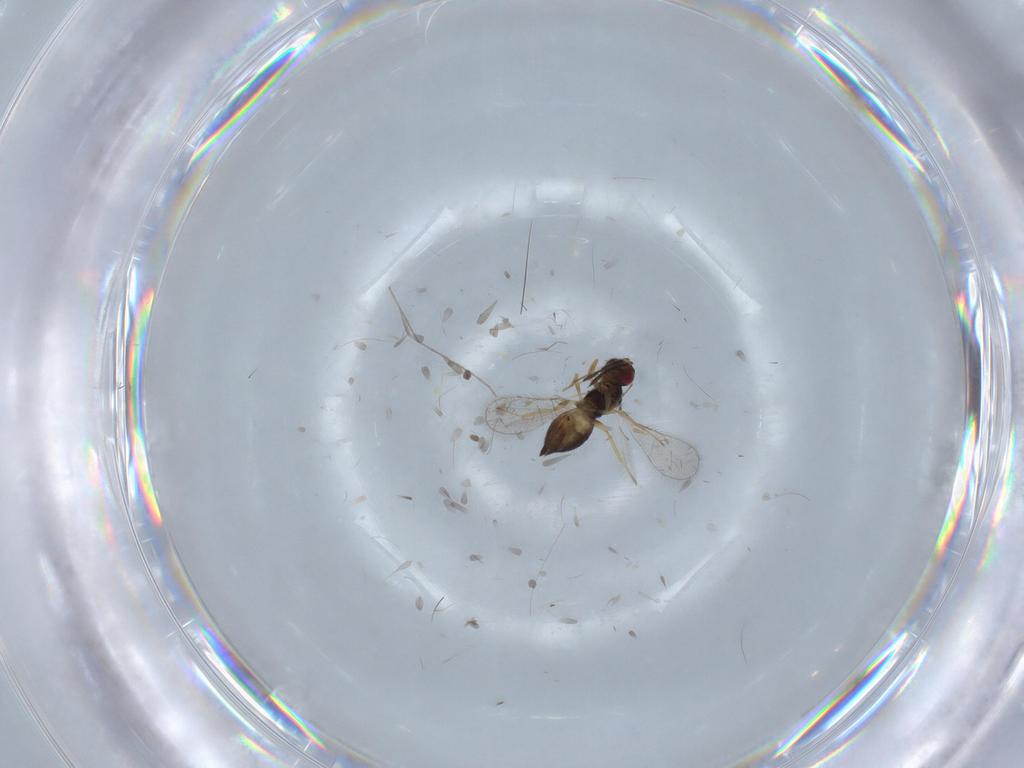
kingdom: Animalia
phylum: Arthropoda
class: Insecta
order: Hymenoptera
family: Eulophidae
